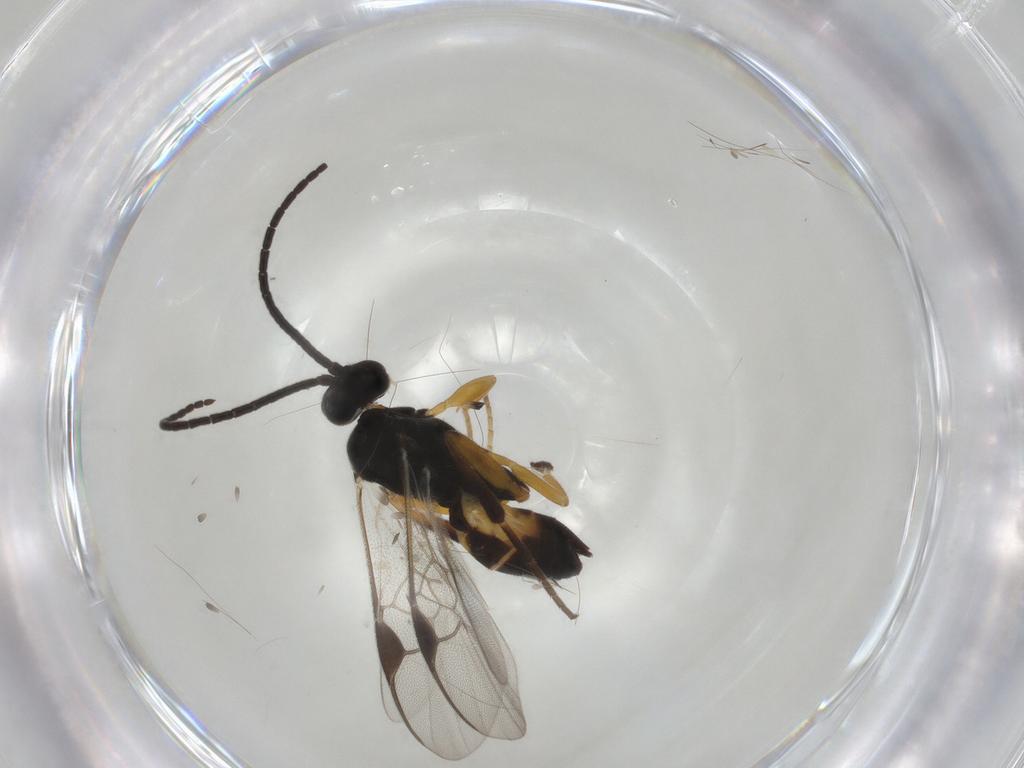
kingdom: Animalia
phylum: Arthropoda
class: Insecta
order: Hymenoptera
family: Braconidae
